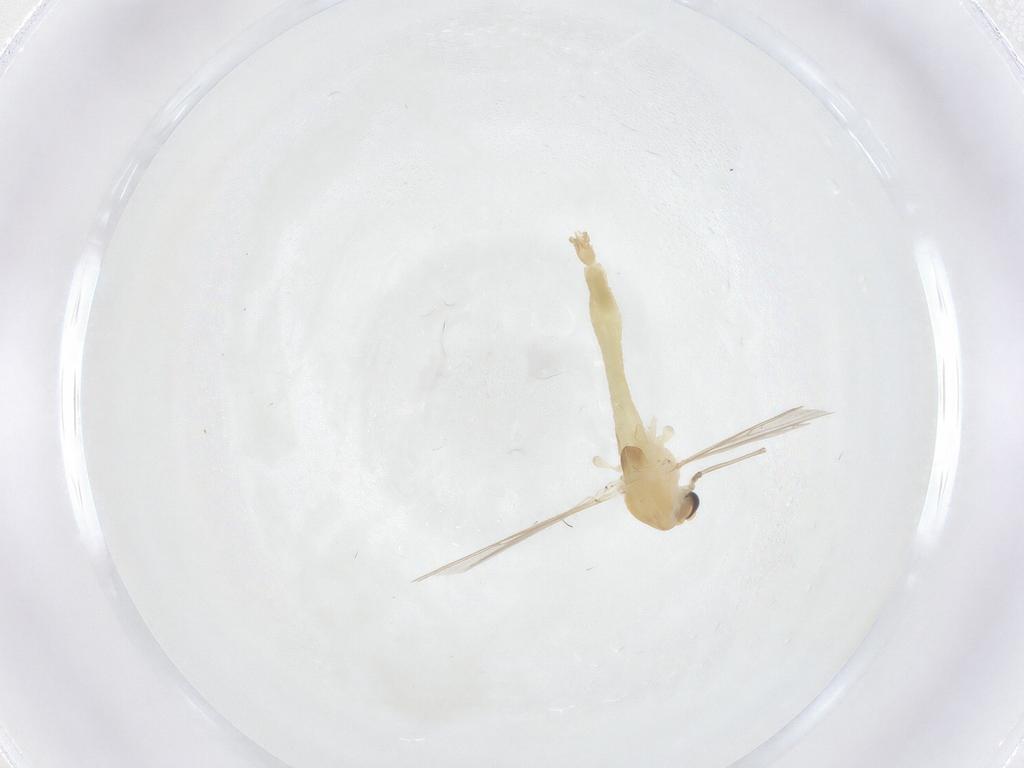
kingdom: Animalia
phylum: Arthropoda
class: Insecta
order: Diptera
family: Chironomidae
